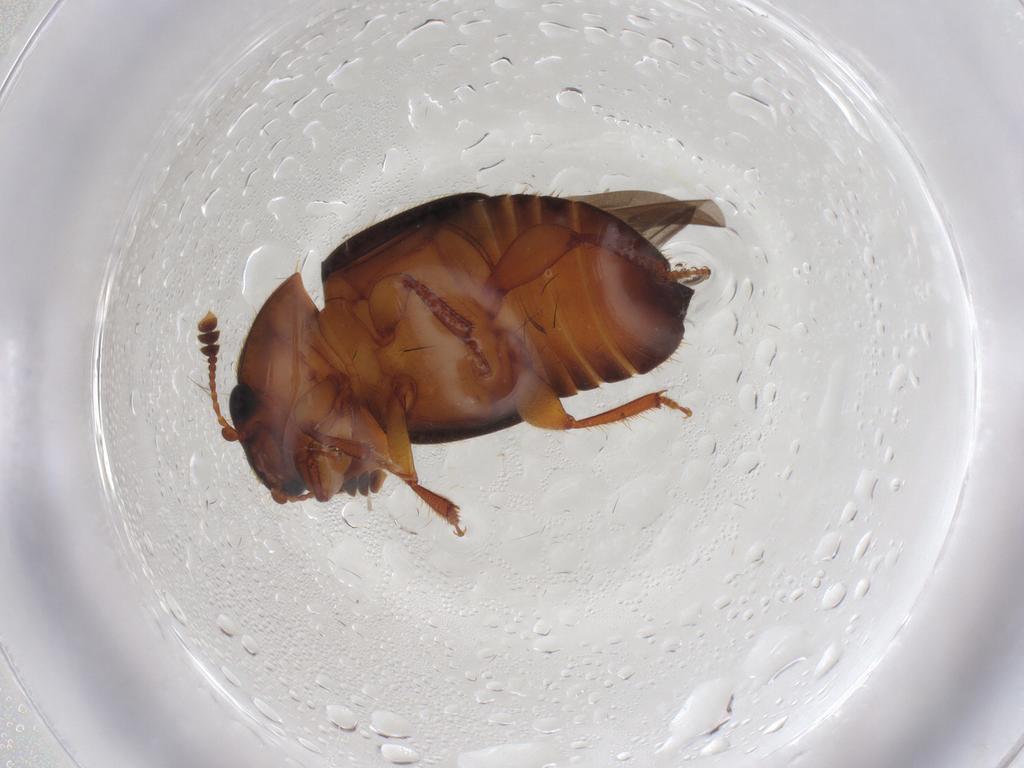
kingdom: Animalia
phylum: Arthropoda
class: Insecta
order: Coleoptera
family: Nitidulidae
